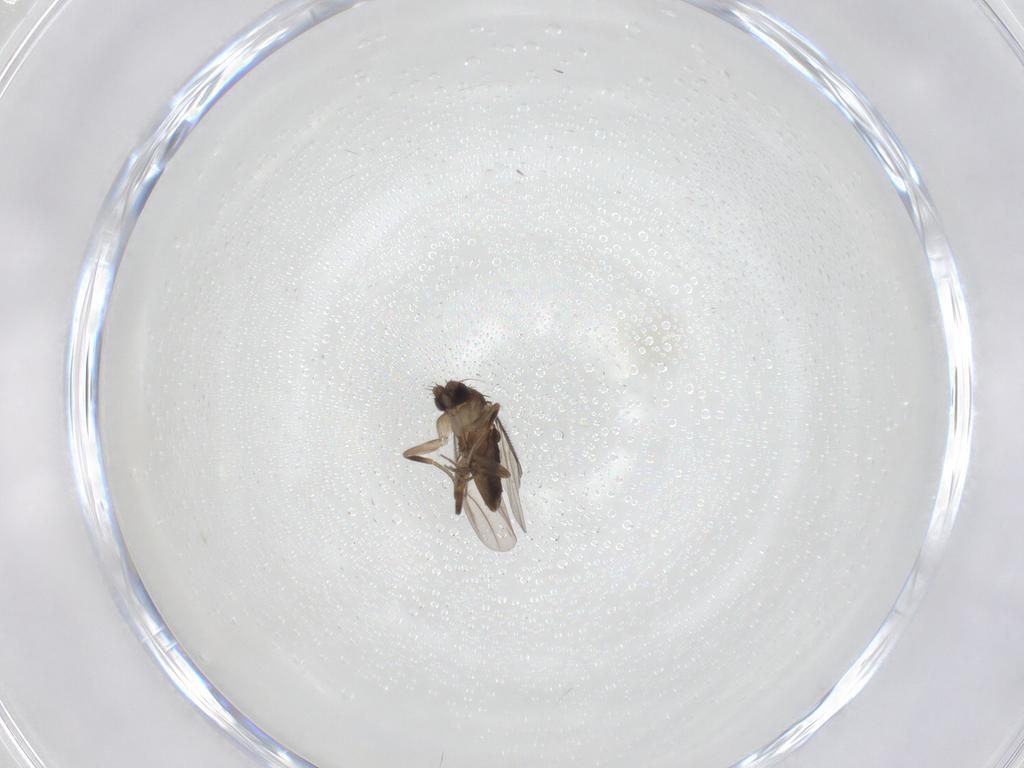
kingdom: Animalia
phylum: Arthropoda
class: Insecta
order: Diptera
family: Phoridae
